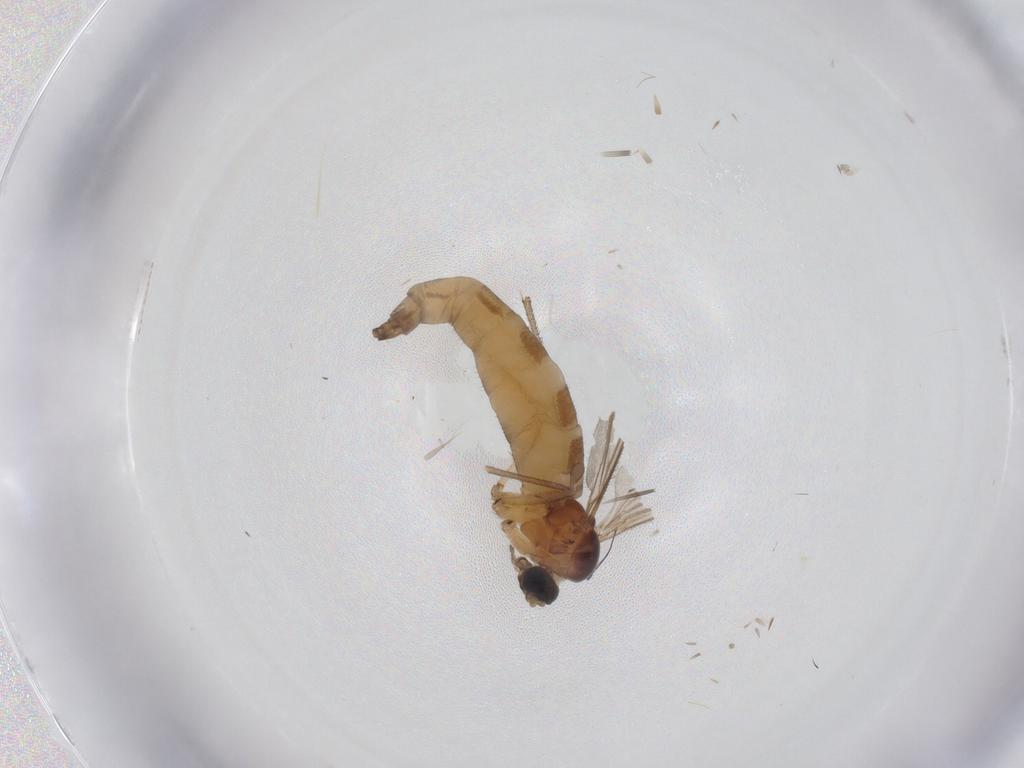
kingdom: Animalia
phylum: Arthropoda
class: Insecta
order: Diptera
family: Sciaridae
